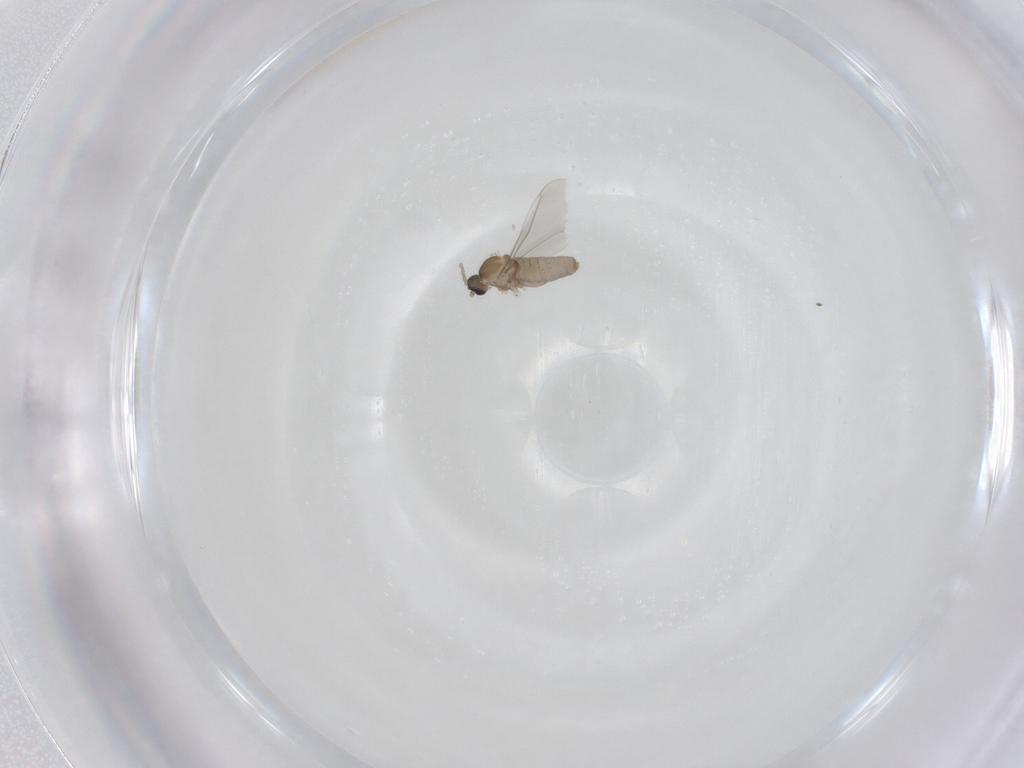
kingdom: Animalia
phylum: Arthropoda
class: Insecta
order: Diptera
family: Cecidomyiidae
